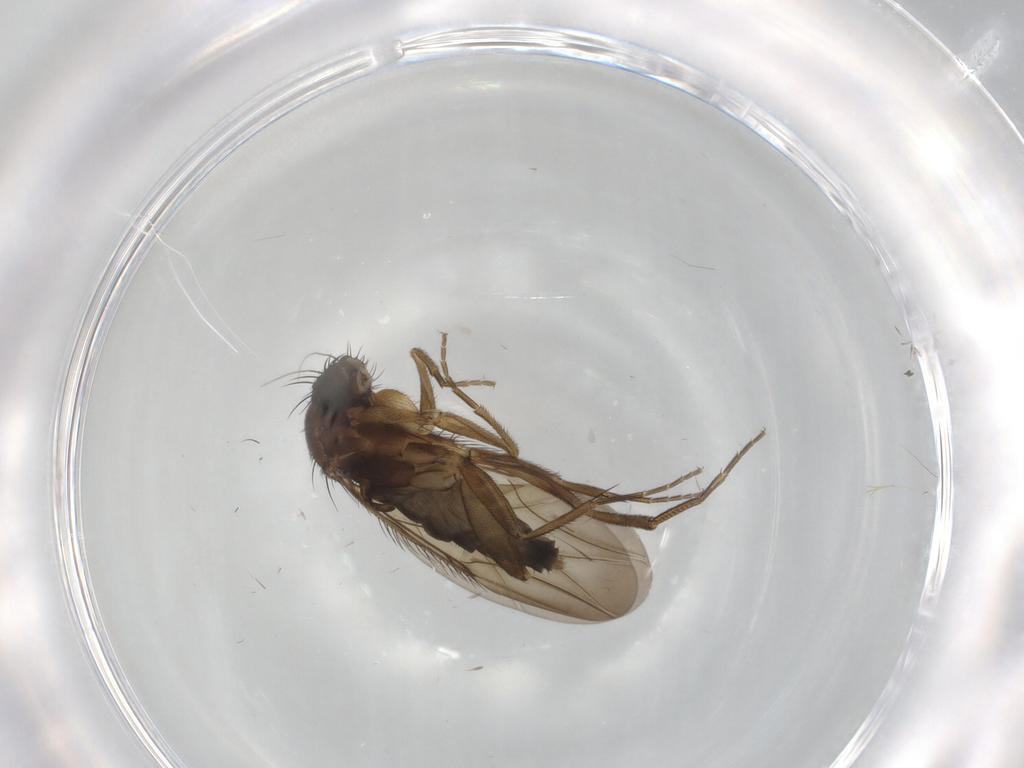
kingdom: Animalia
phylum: Arthropoda
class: Insecta
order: Diptera
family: Phoridae
